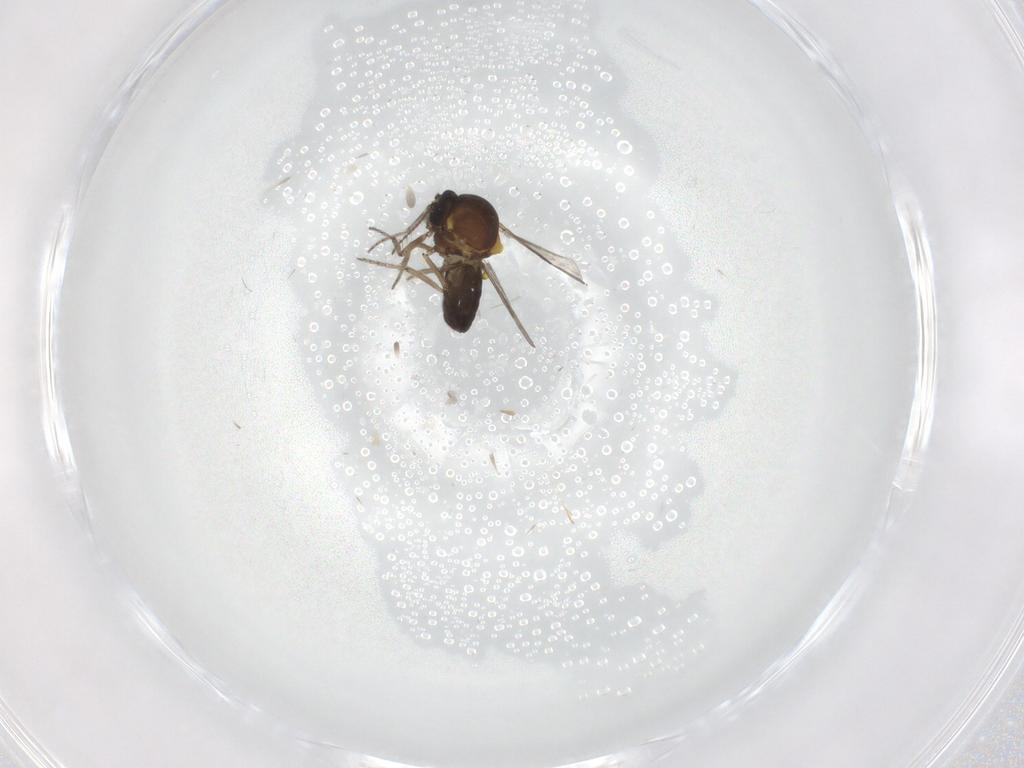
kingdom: Animalia
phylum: Arthropoda
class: Insecta
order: Diptera
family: Ceratopogonidae
